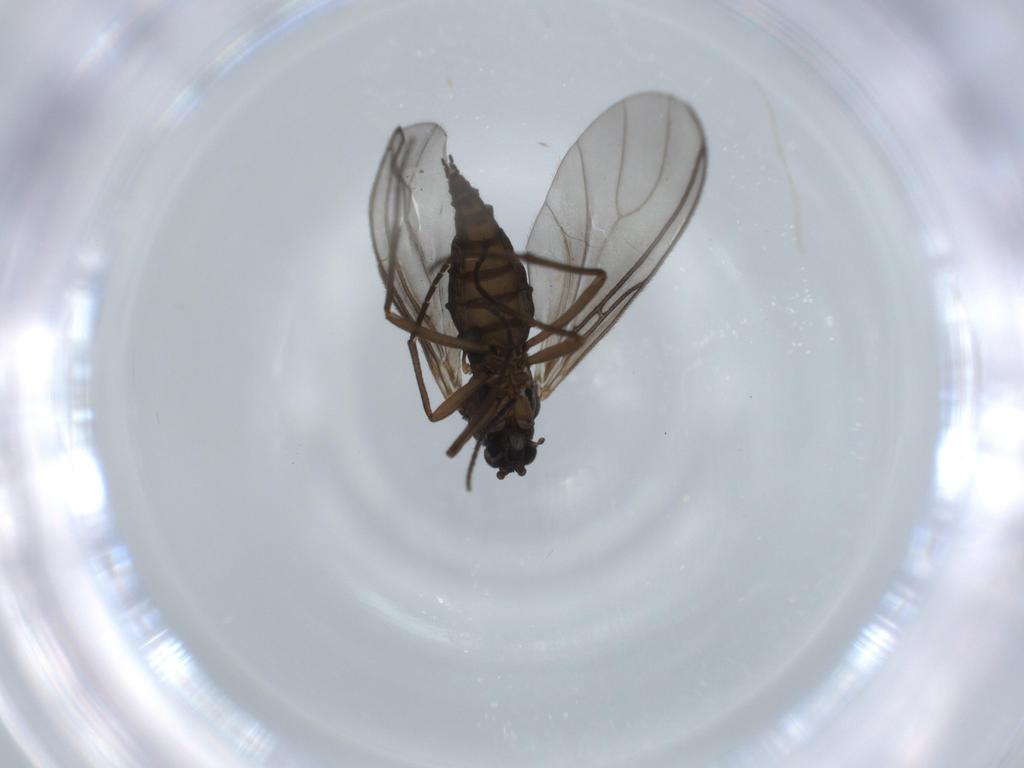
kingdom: Animalia
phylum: Arthropoda
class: Insecta
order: Diptera
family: Sciaridae
